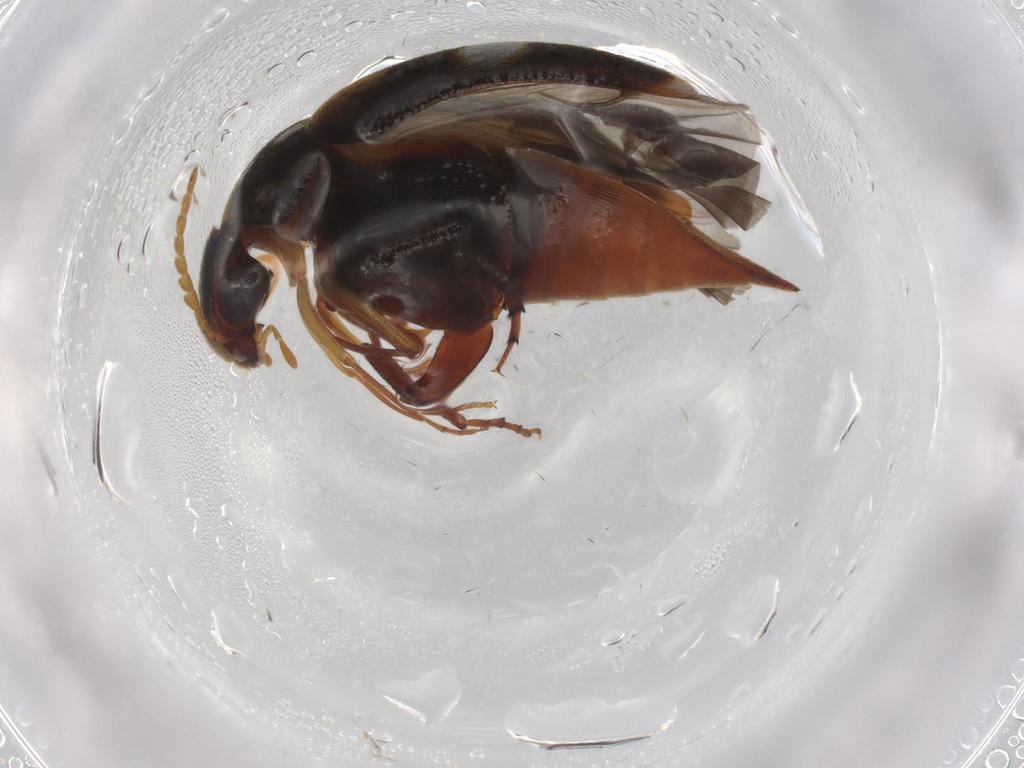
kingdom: Animalia
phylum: Arthropoda
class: Insecta
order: Coleoptera
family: Mordellidae
